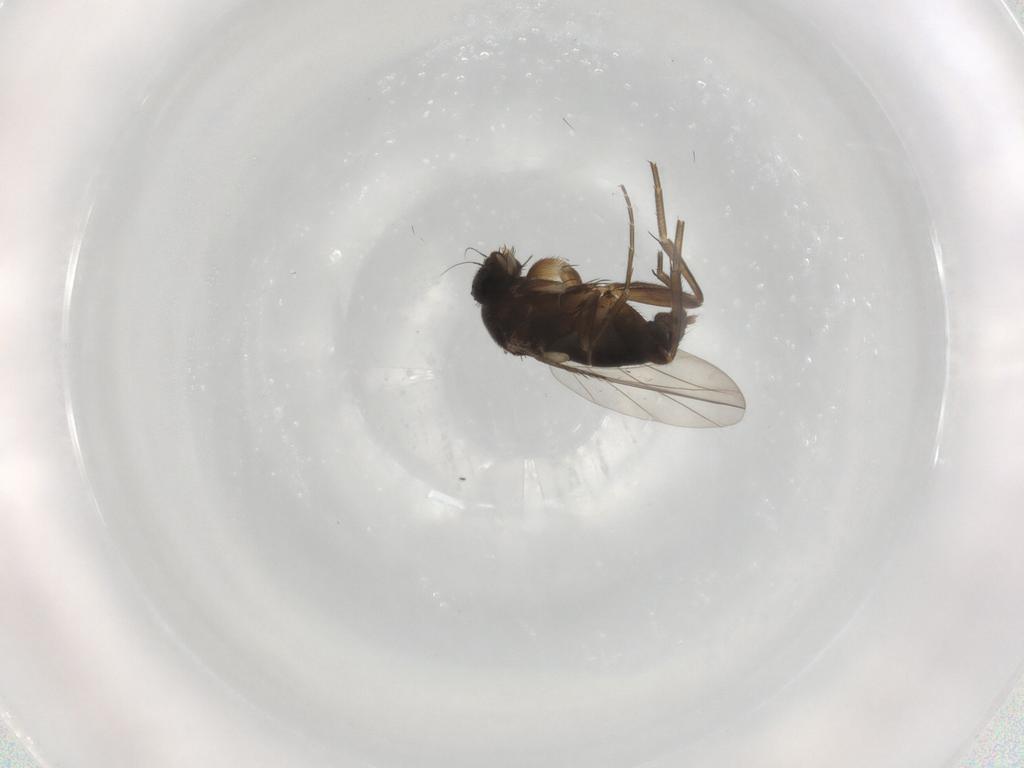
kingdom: Animalia
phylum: Arthropoda
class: Insecta
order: Diptera
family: Phoridae
